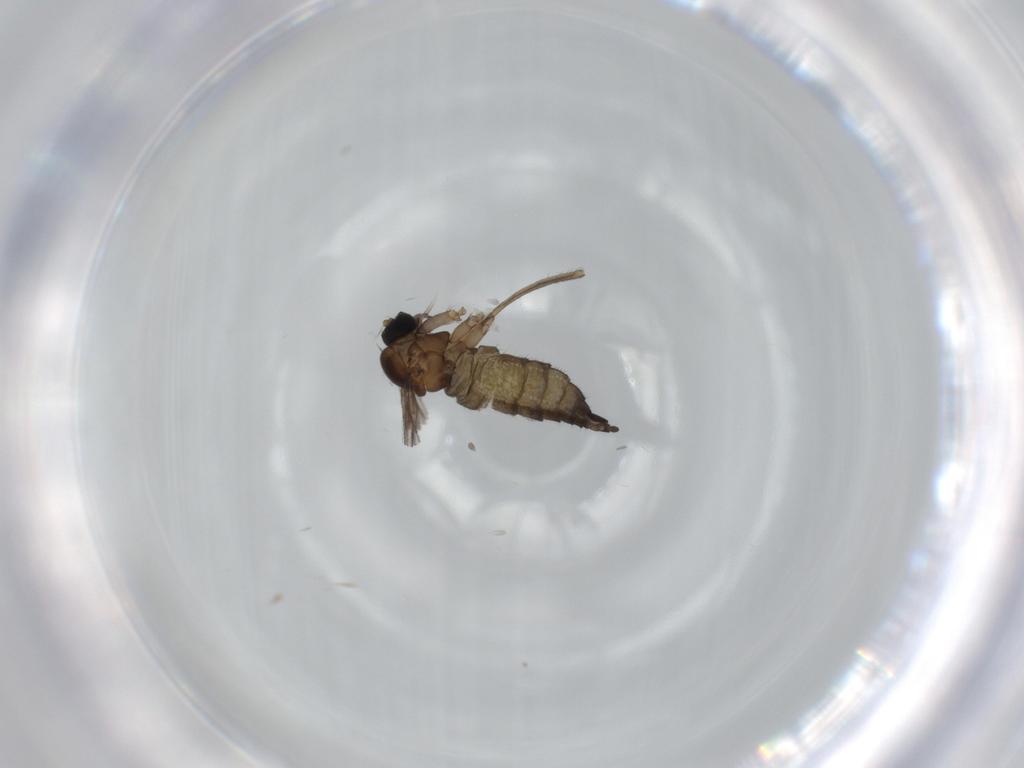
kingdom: Animalia
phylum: Arthropoda
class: Insecta
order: Diptera
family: Sciaridae
